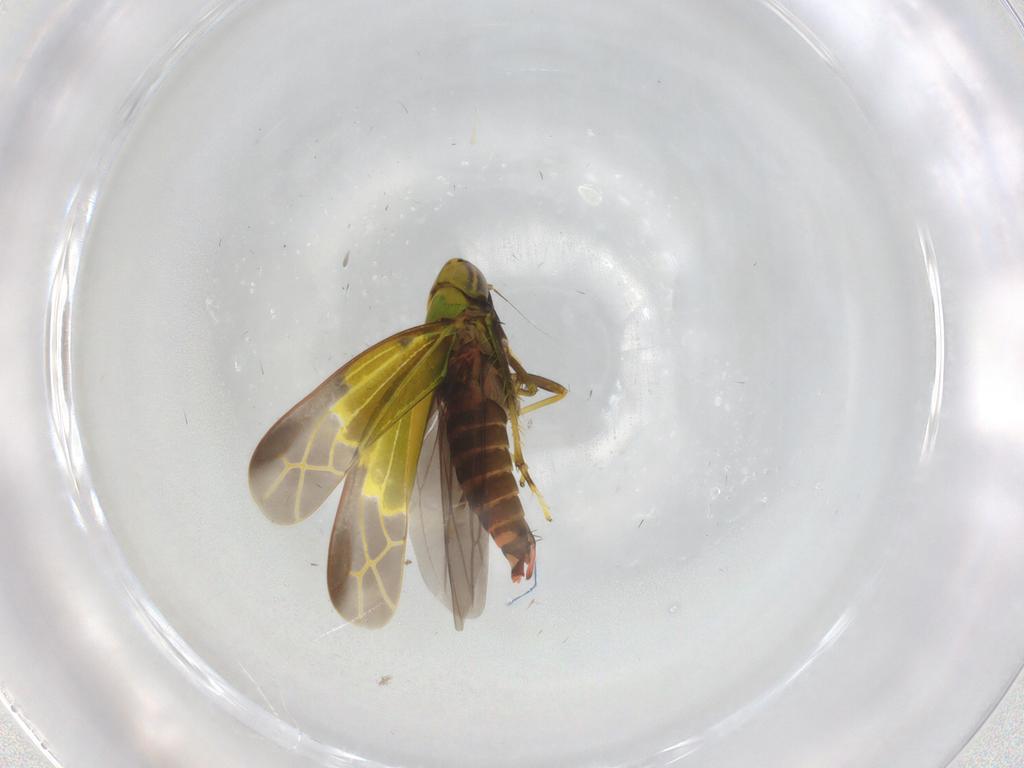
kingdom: Animalia
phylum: Arthropoda
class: Insecta
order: Hemiptera
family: Cicadellidae
